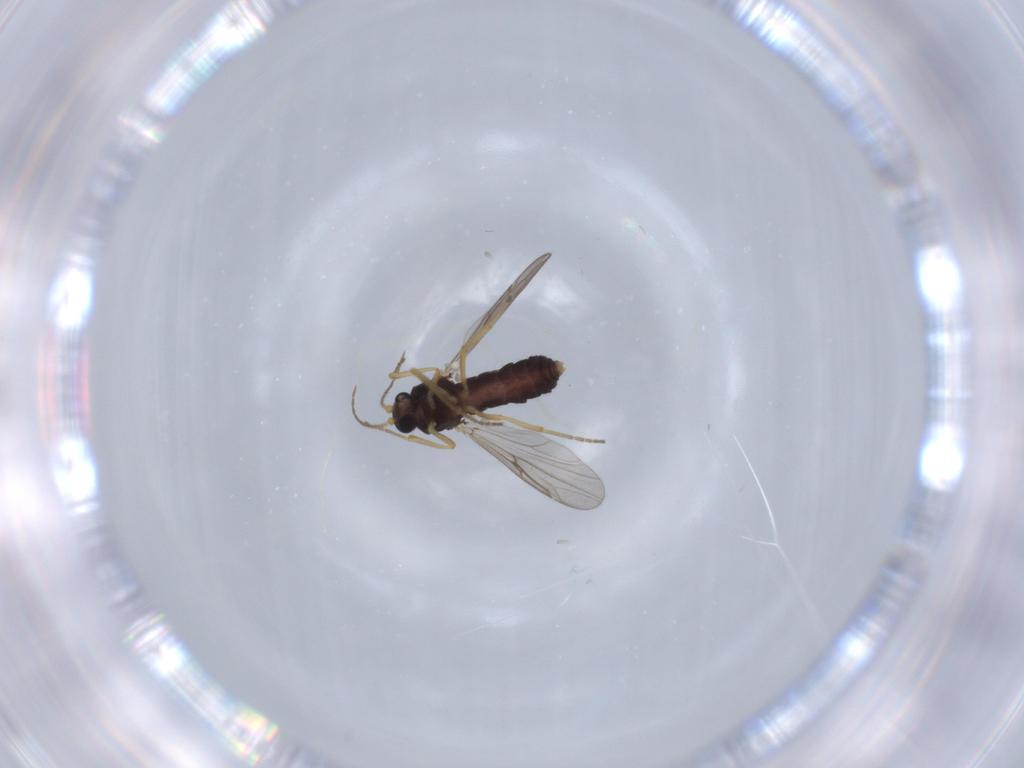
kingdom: Animalia
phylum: Arthropoda
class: Insecta
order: Diptera
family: Ceratopogonidae
